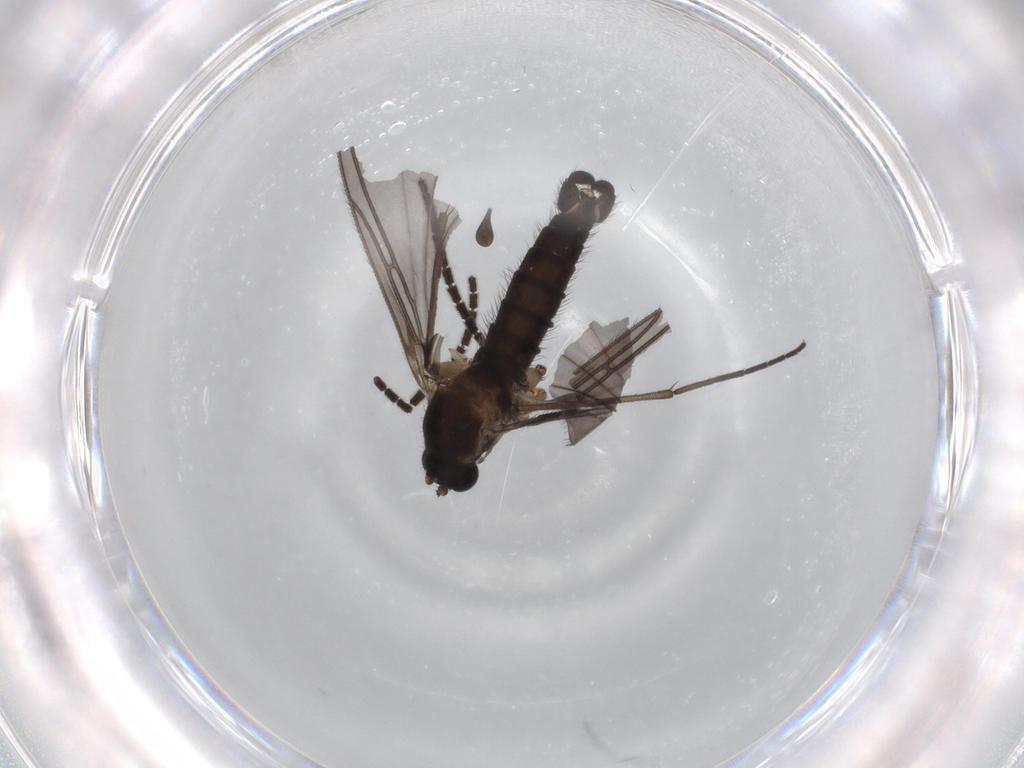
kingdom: Animalia
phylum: Arthropoda
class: Insecta
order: Diptera
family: Sciaridae
